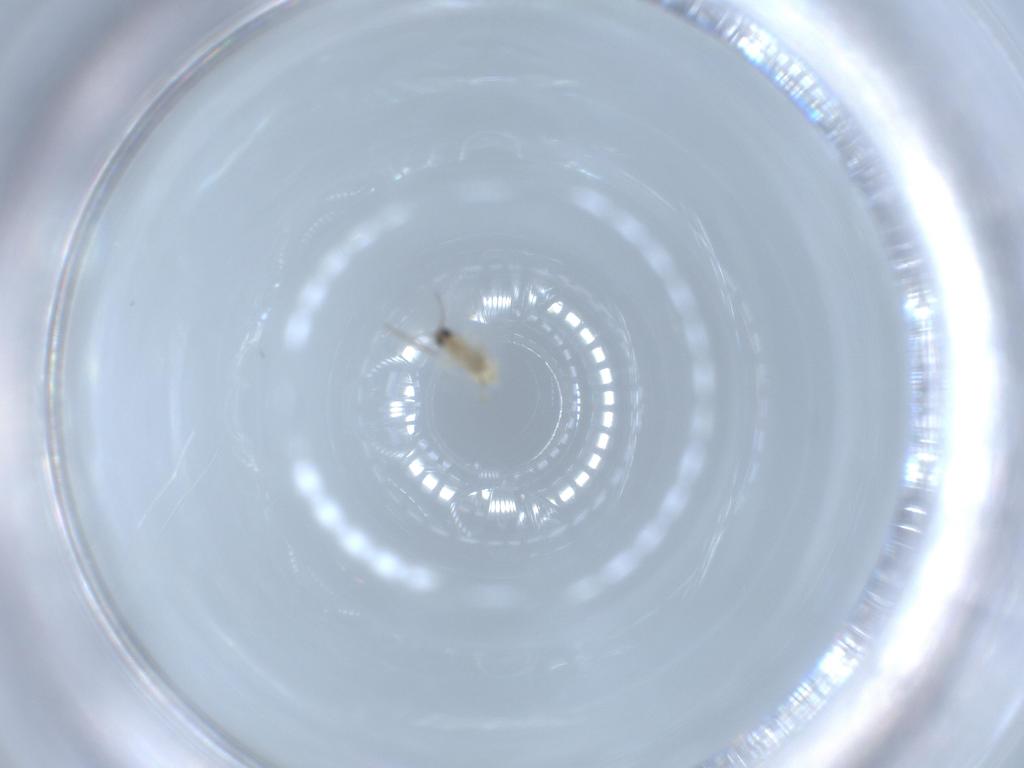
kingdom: Animalia
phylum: Arthropoda
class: Insecta
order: Diptera
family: Cecidomyiidae
